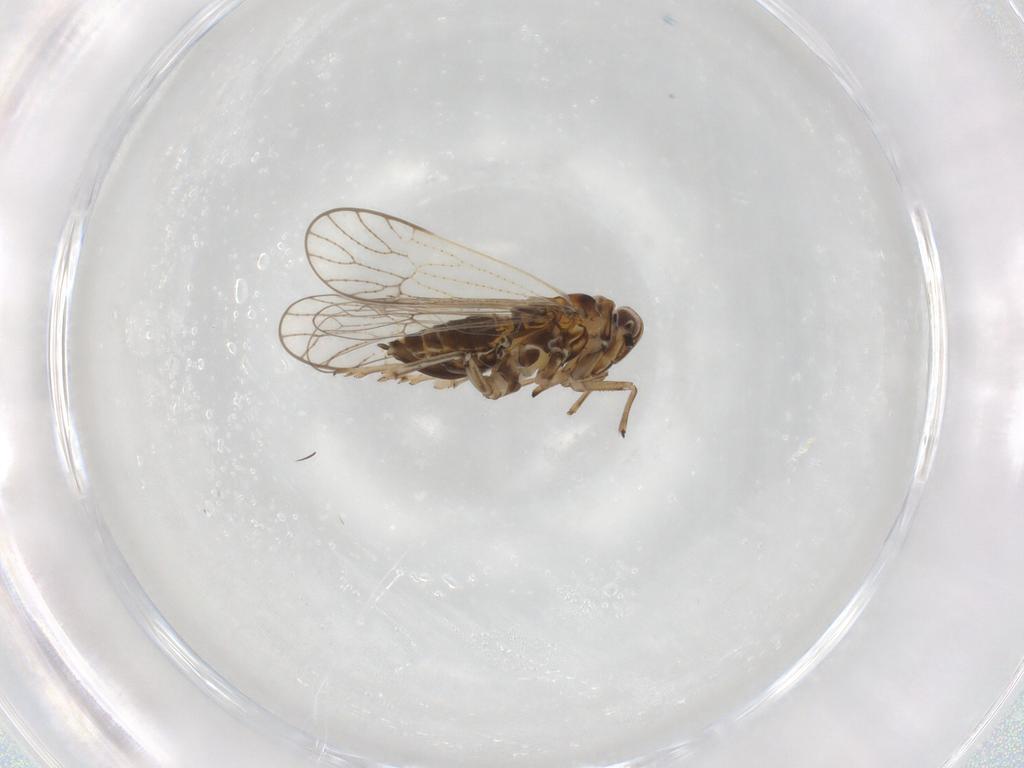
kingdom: Animalia
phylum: Arthropoda
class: Insecta
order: Hemiptera
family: Delphacidae
